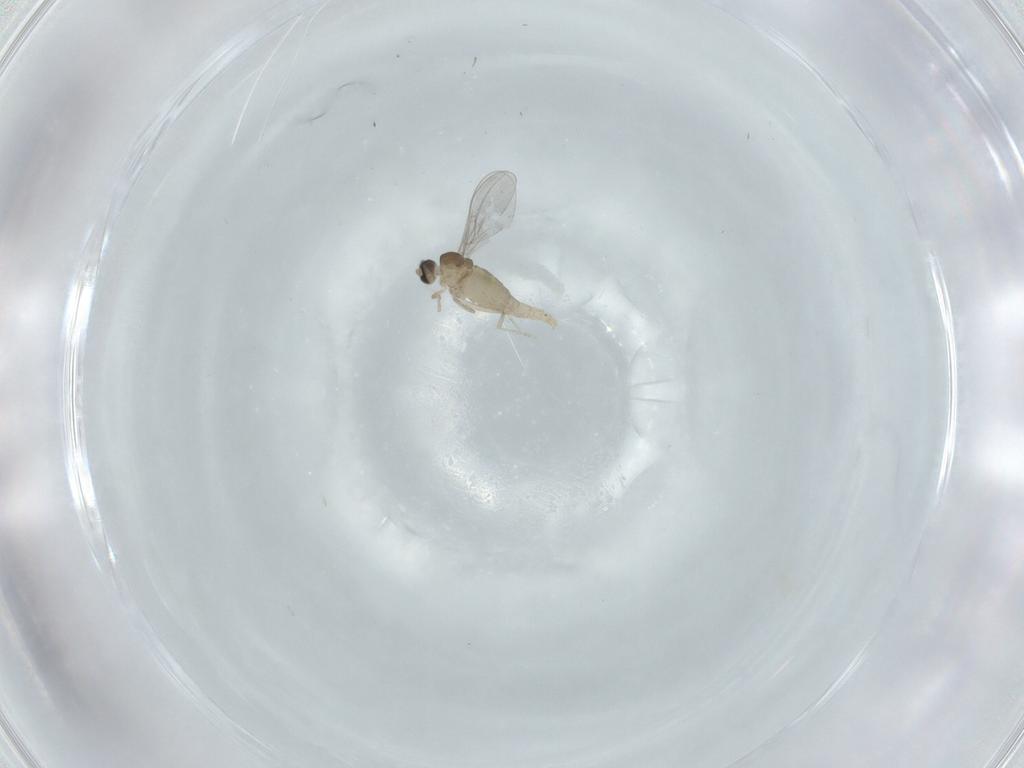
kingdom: Animalia
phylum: Arthropoda
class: Insecta
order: Diptera
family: Cecidomyiidae
